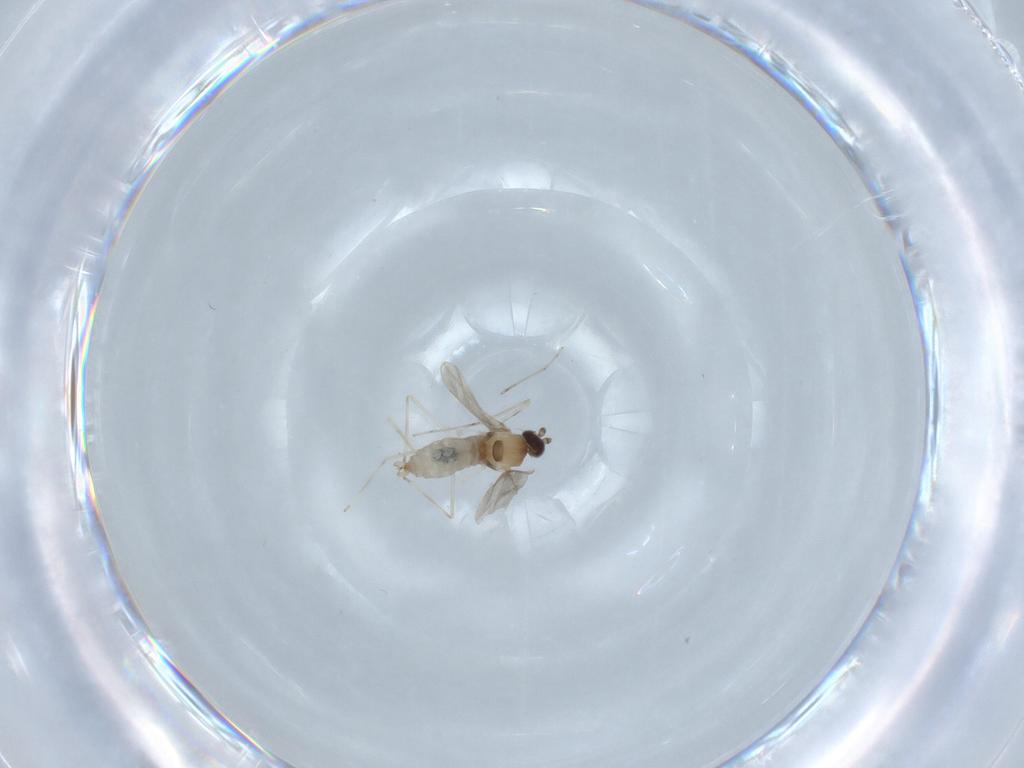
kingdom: Animalia
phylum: Arthropoda
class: Insecta
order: Diptera
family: Cecidomyiidae
